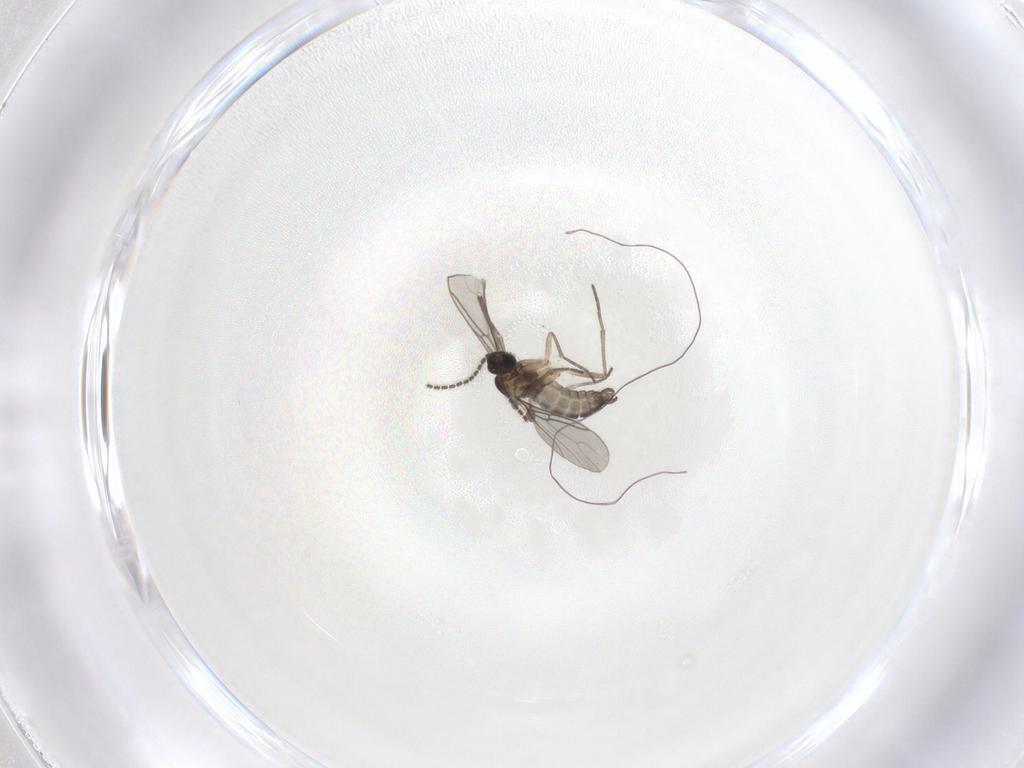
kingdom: Animalia
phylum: Arthropoda
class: Insecta
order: Diptera
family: Sciaridae
